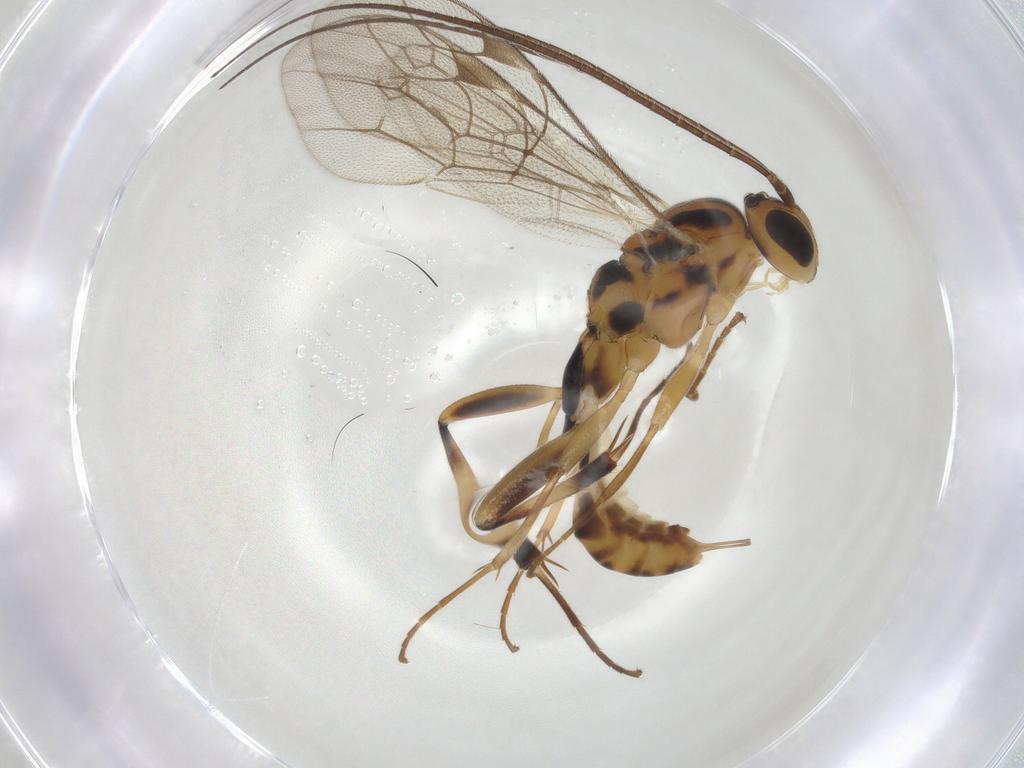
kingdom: Animalia
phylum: Arthropoda
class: Insecta
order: Hymenoptera
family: Ichneumonidae
